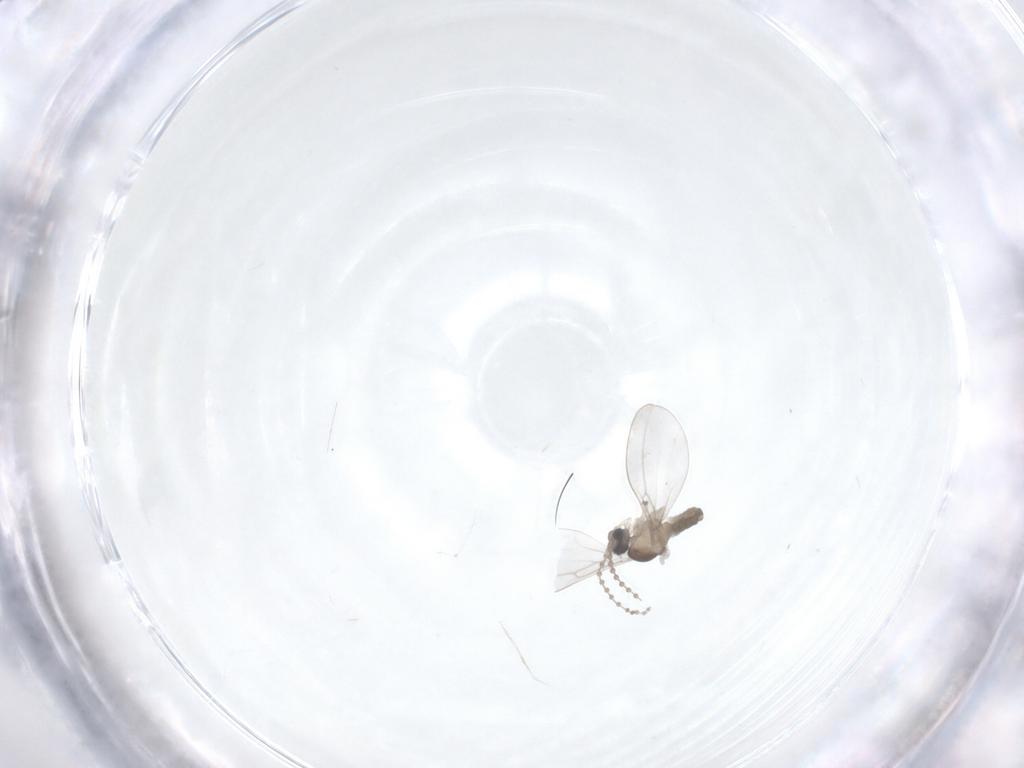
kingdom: Animalia
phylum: Arthropoda
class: Insecta
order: Diptera
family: Cecidomyiidae
